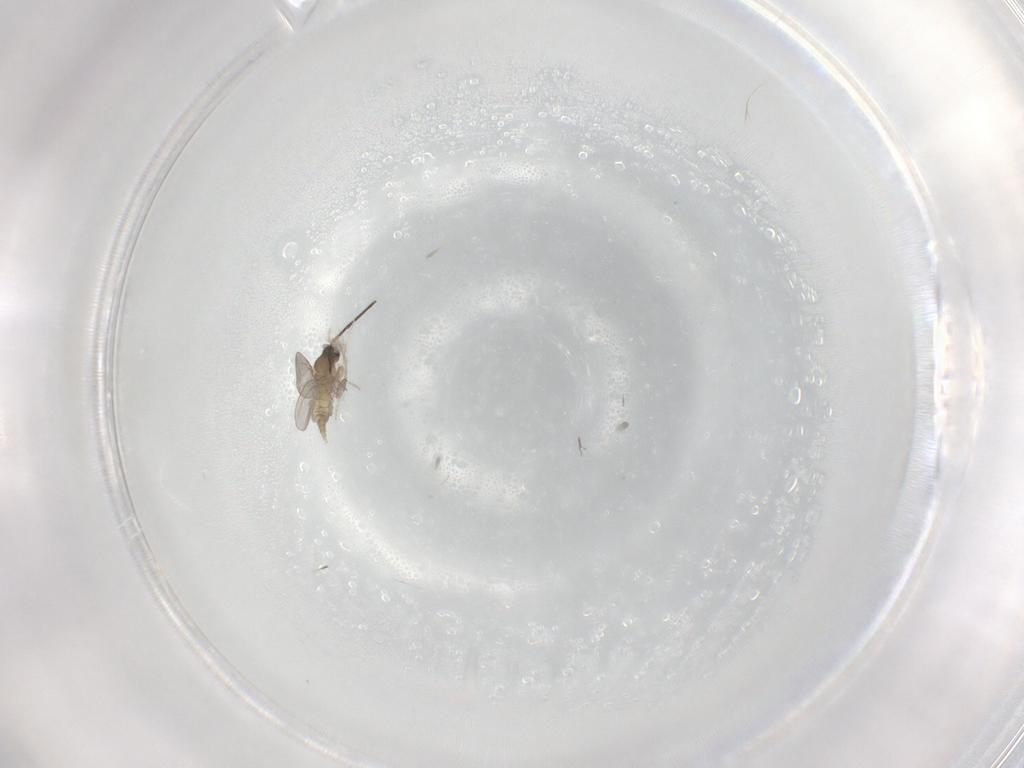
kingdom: Animalia
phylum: Arthropoda
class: Insecta
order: Diptera
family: Cecidomyiidae
